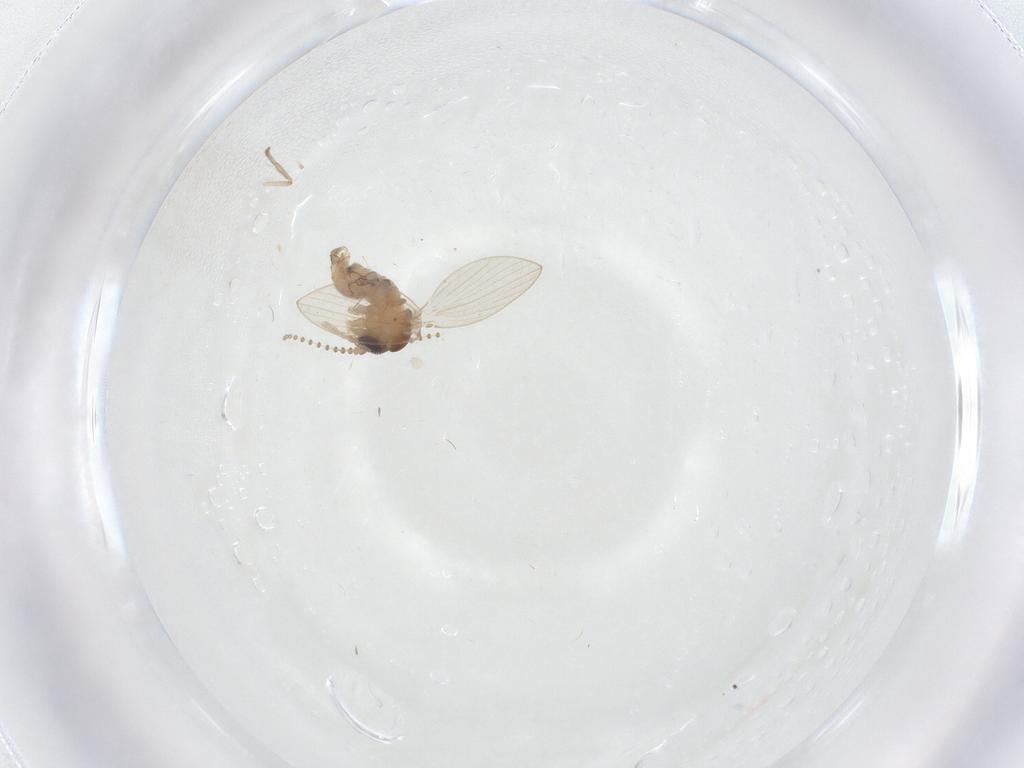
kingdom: Animalia
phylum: Arthropoda
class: Insecta
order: Diptera
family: Psychodidae
